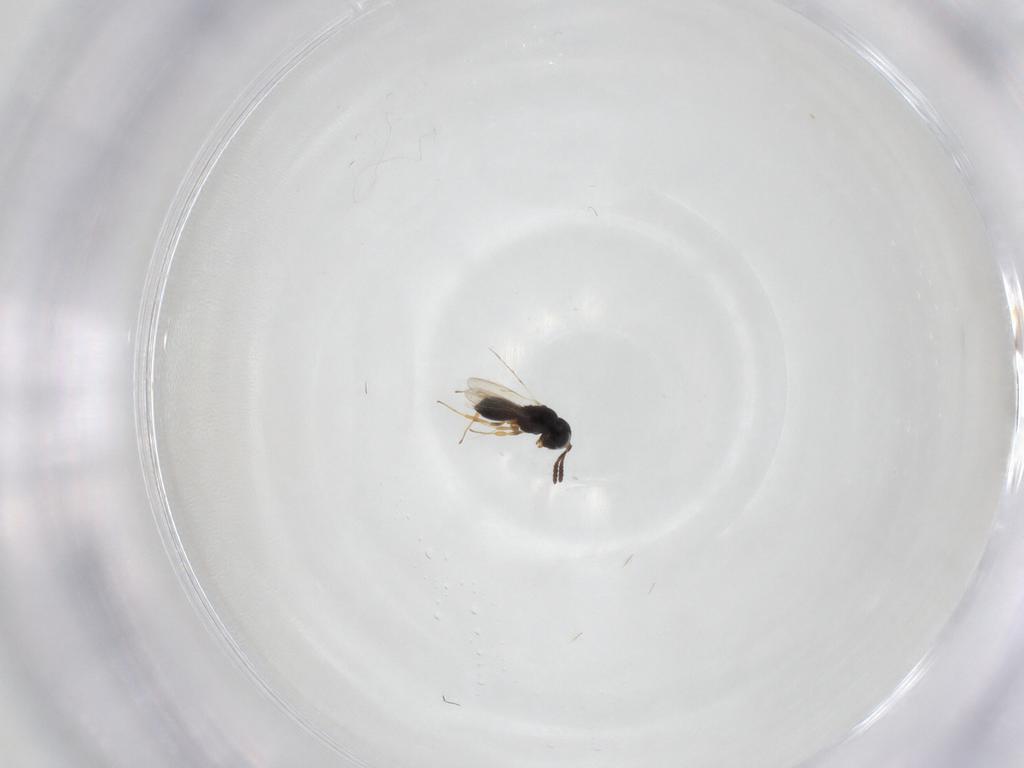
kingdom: Animalia
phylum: Arthropoda
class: Insecta
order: Hymenoptera
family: Scelionidae
